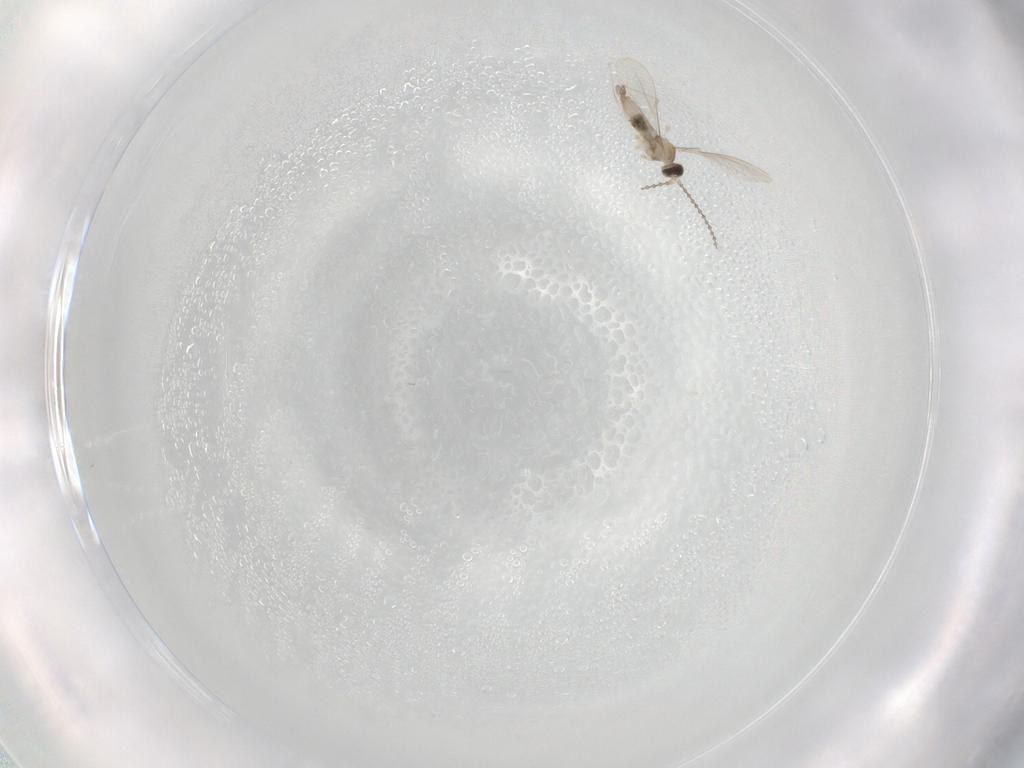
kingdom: Animalia
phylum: Arthropoda
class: Insecta
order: Diptera
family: Cecidomyiidae
